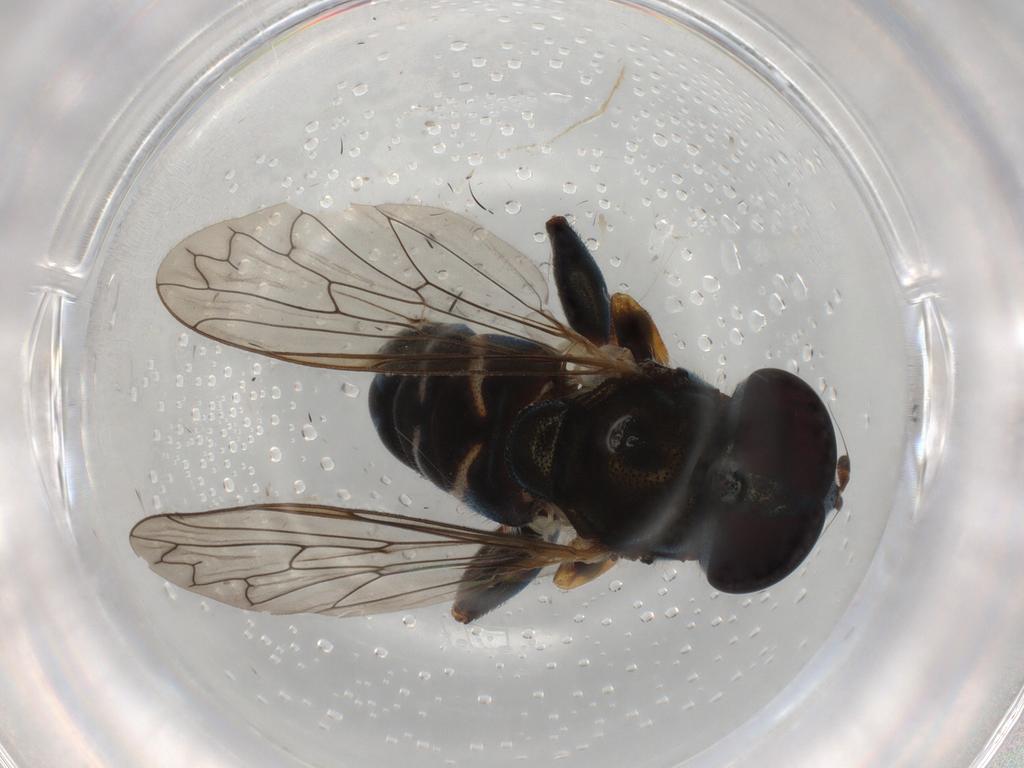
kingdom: Animalia
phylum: Arthropoda
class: Insecta
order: Diptera
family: Syrphidae
